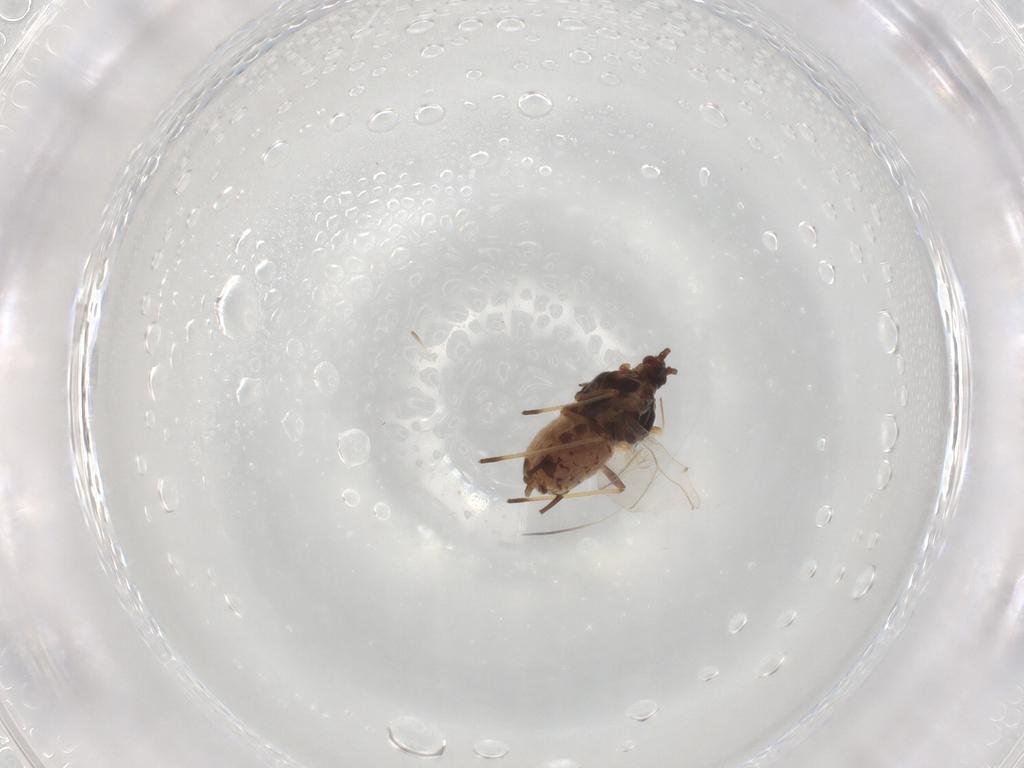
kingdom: Animalia
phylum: Arthropoda
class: Insecta
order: Hemiptera
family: Aphididae
